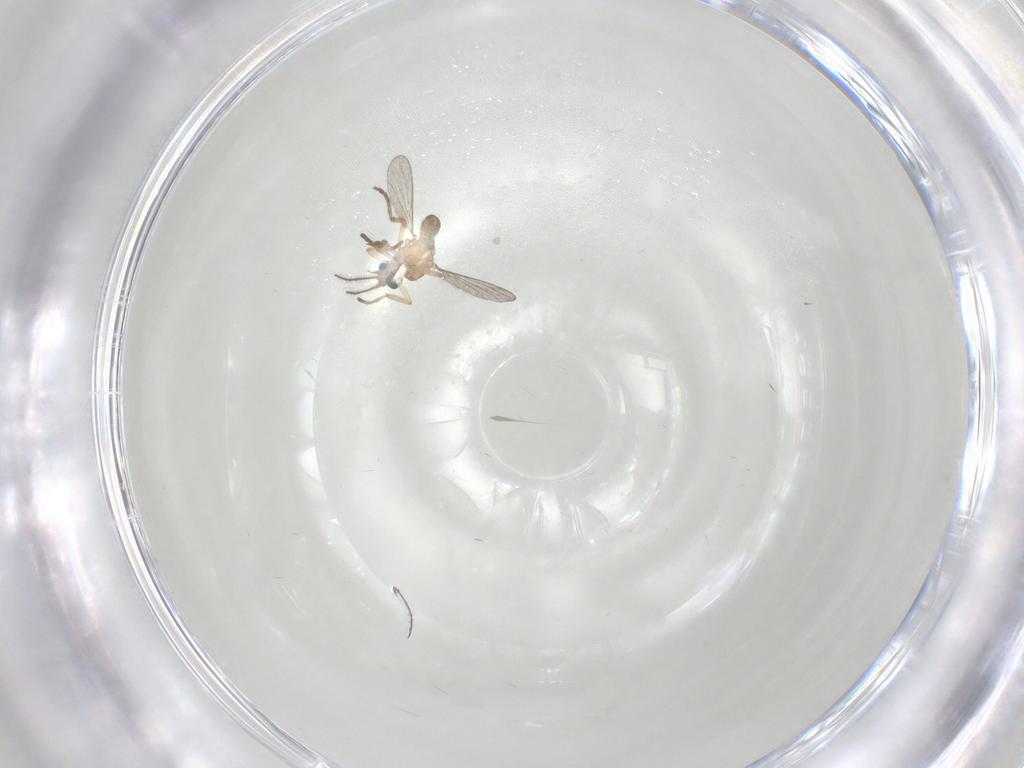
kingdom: Animalia
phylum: Arthropoda
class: Insecta
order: Diptera
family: Ceratopogonidae
